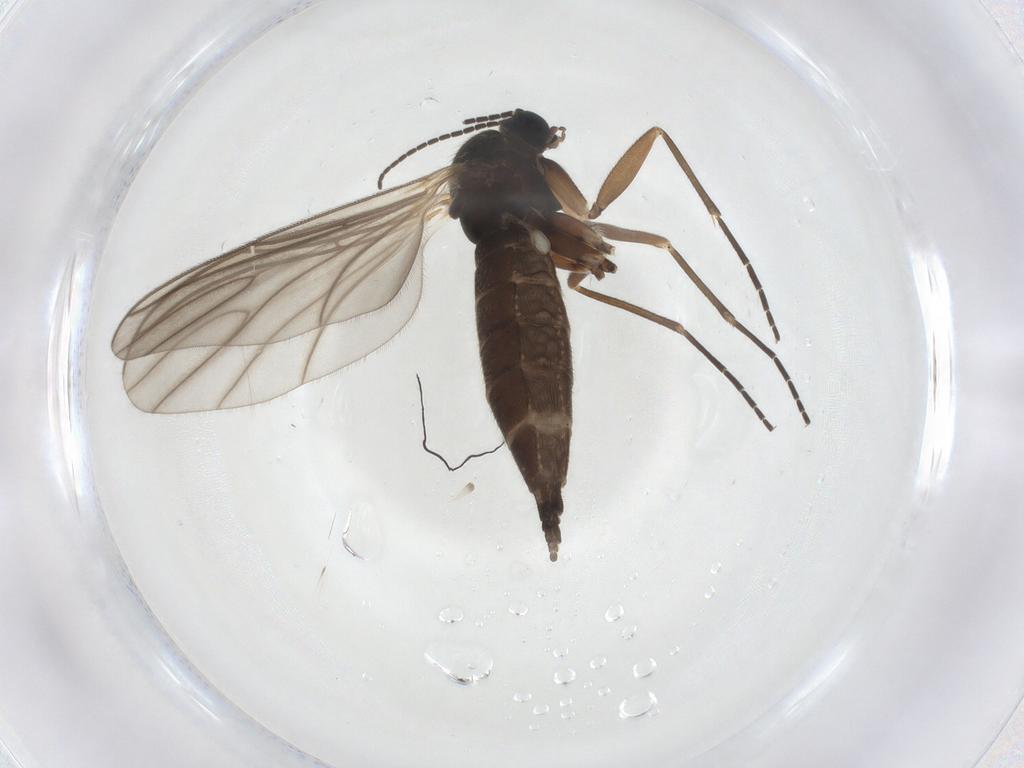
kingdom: Animalia
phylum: Arthropoda
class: Insecta
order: Diptera
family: Sciaridae
